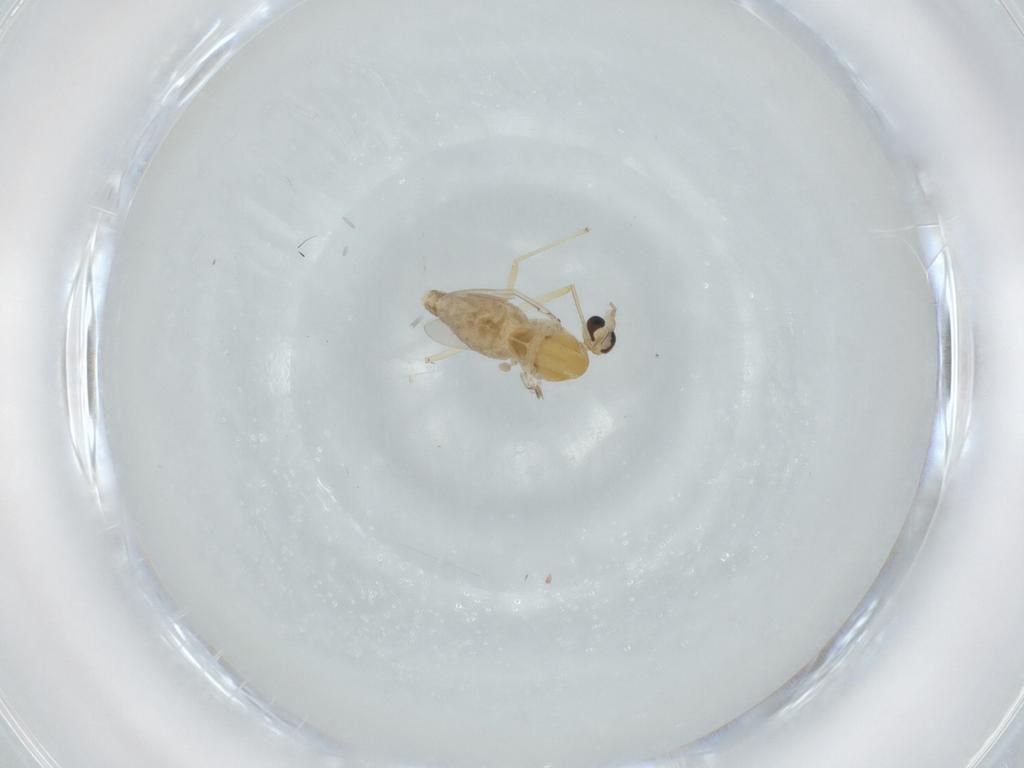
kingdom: Animalia
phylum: Arthropoda
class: Insecta
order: Diptera
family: Chironomidae
